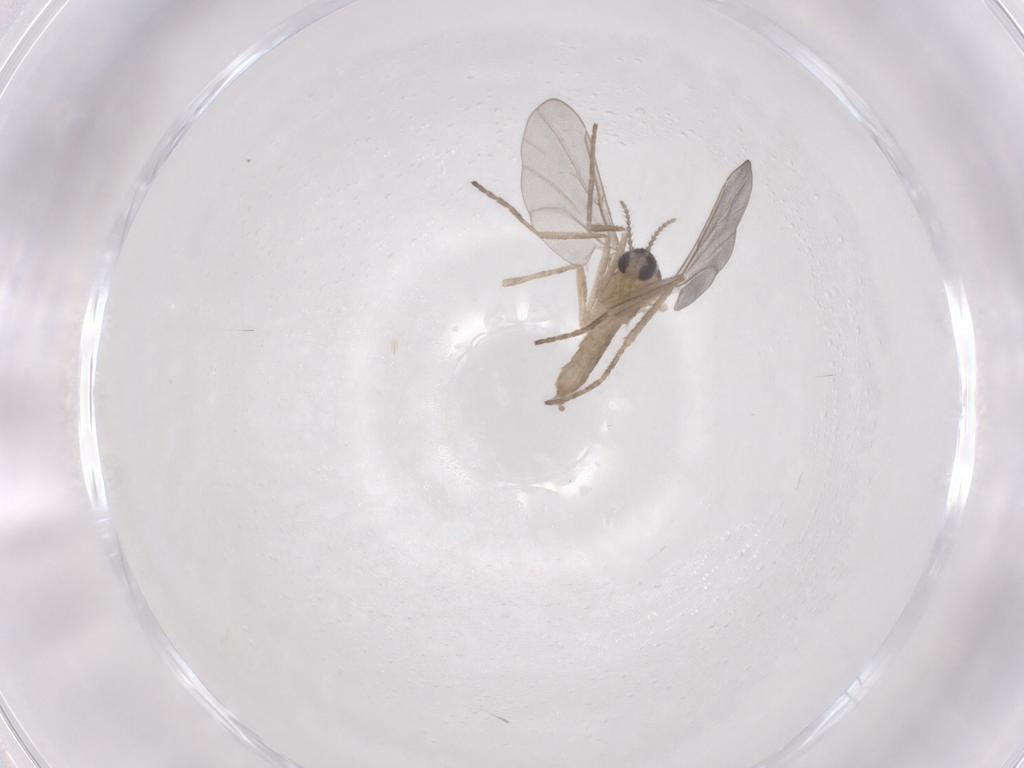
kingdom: Animalia
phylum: Arthropoda
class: Insecta
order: Diptera
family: Cecidomyiidae
